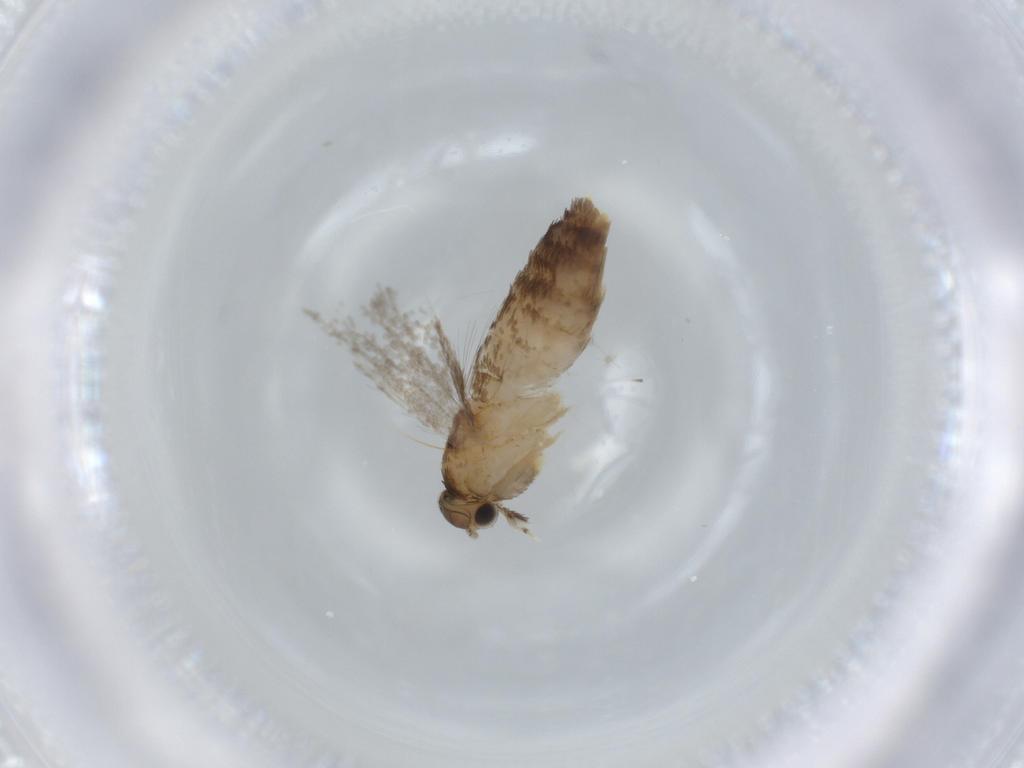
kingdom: Animalia
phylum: Arthropoda
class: Insecta
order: Lepidoptera
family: Tineidae
